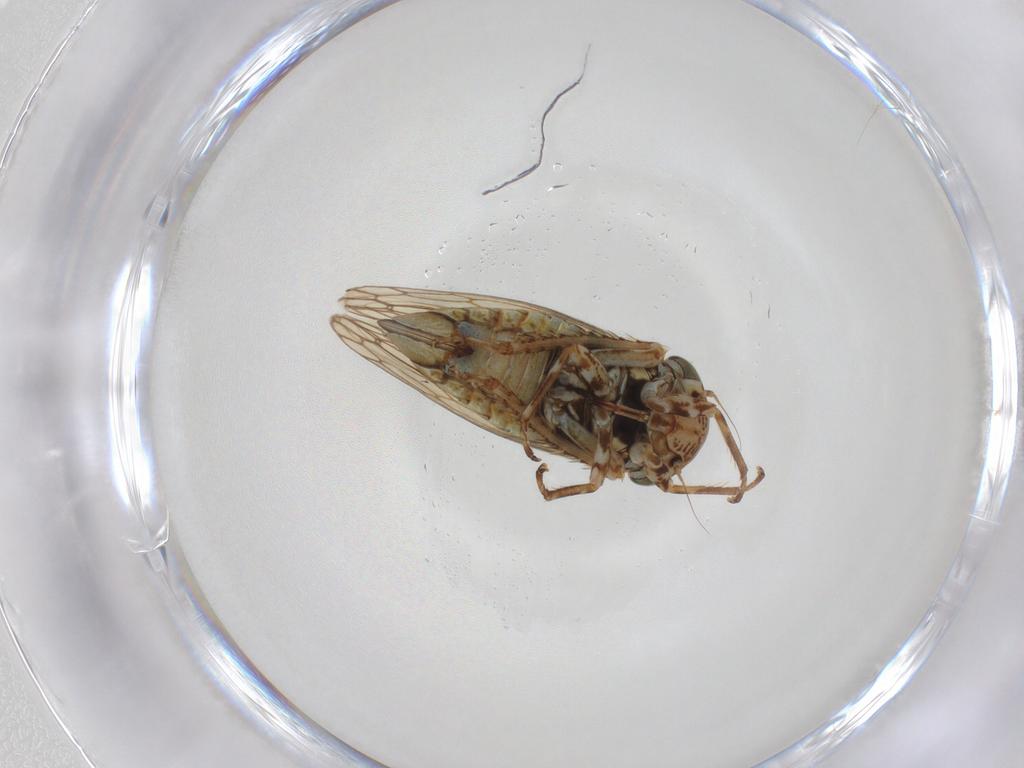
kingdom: Animalia
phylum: Arthropoda
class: Insecta
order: Hemiptera
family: Cicadellidae
